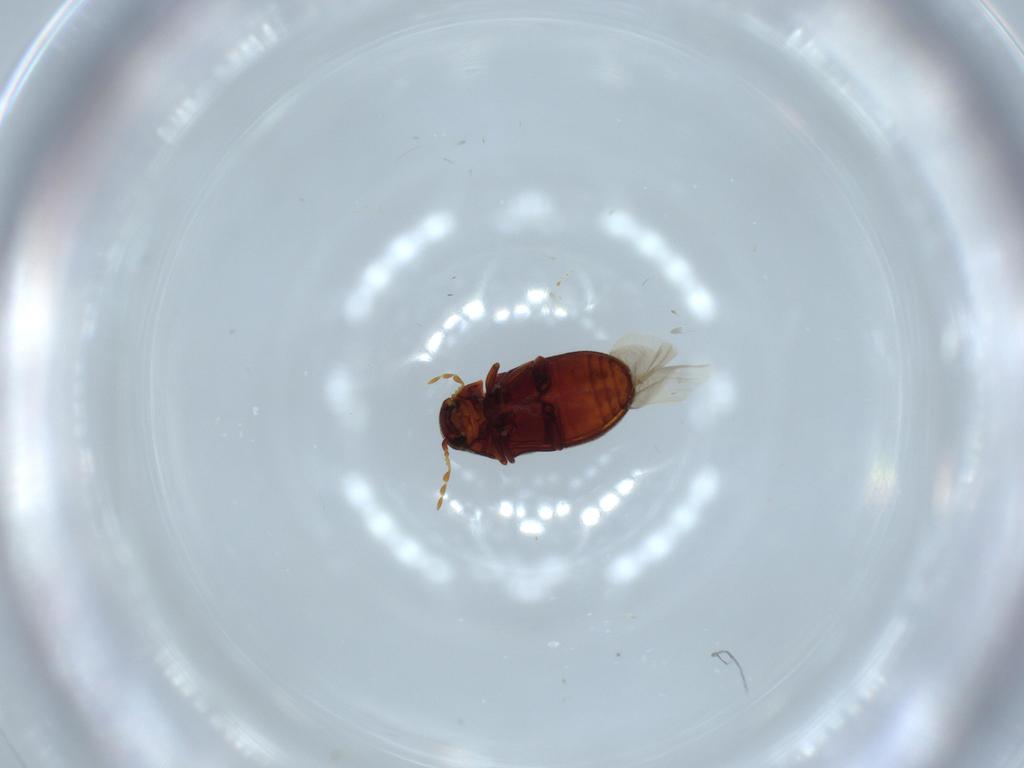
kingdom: Animalia
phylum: Arthropoda
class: Insecta
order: Coleoptera
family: Ptinidae
